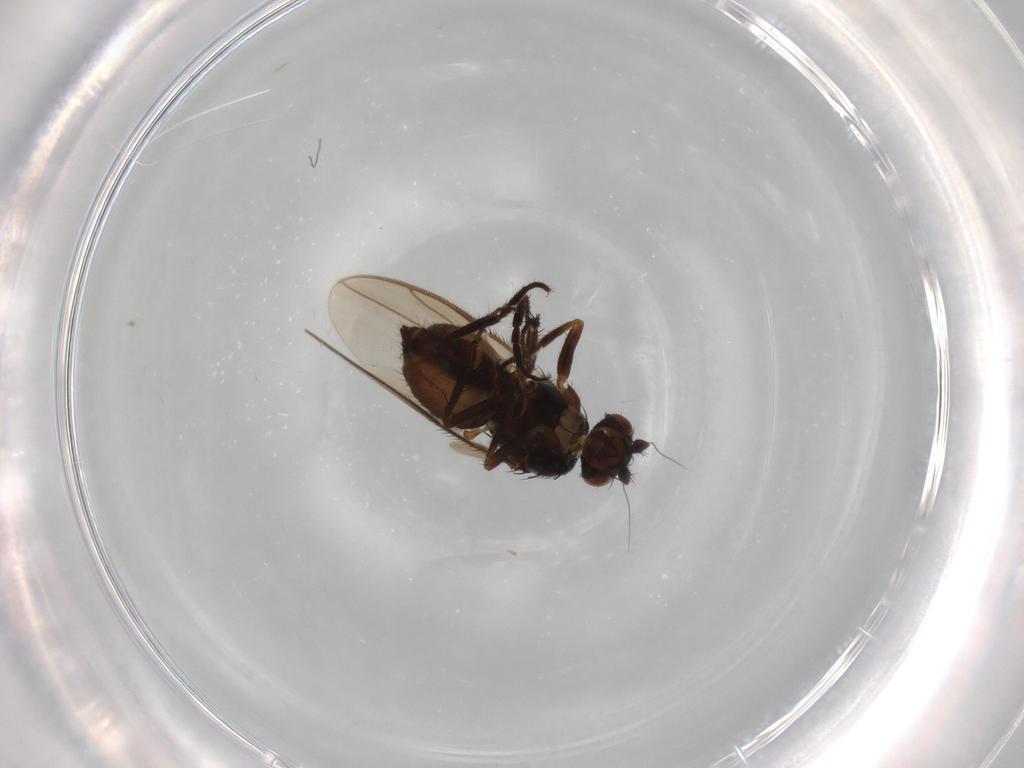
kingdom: Animalia
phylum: Arthropoda
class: Insecta
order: Diptera
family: Sphaeroceridae
